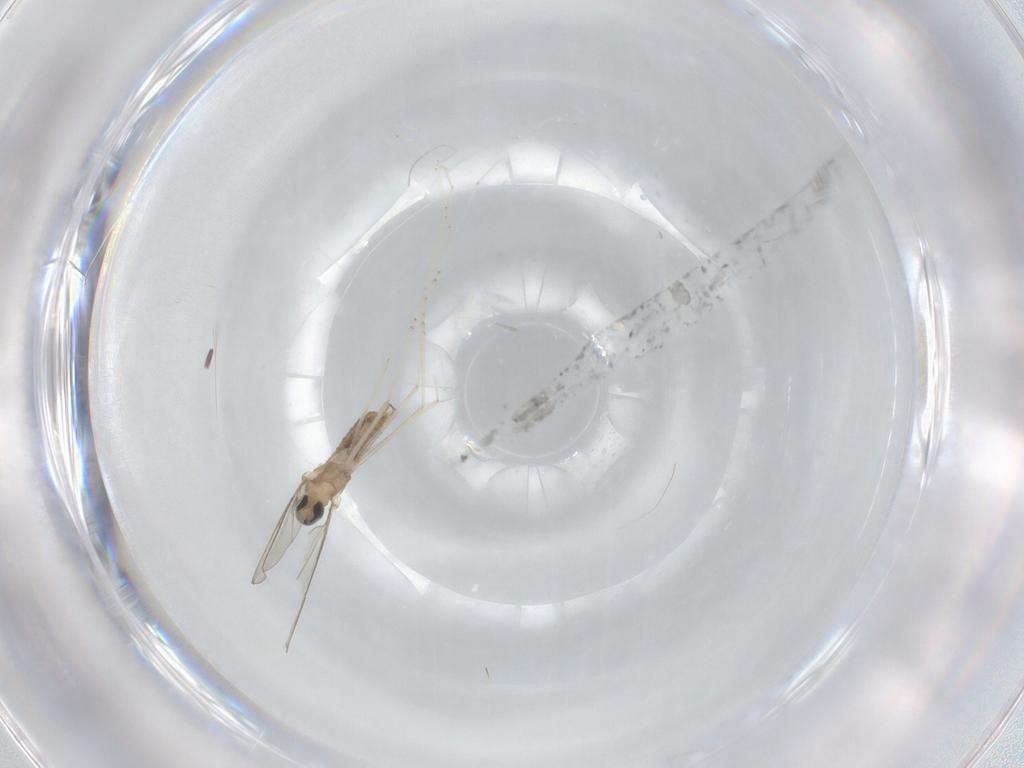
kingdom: Animalia
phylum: Arthropoda
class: Insecta
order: Diptera
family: Cecidomyiidae
